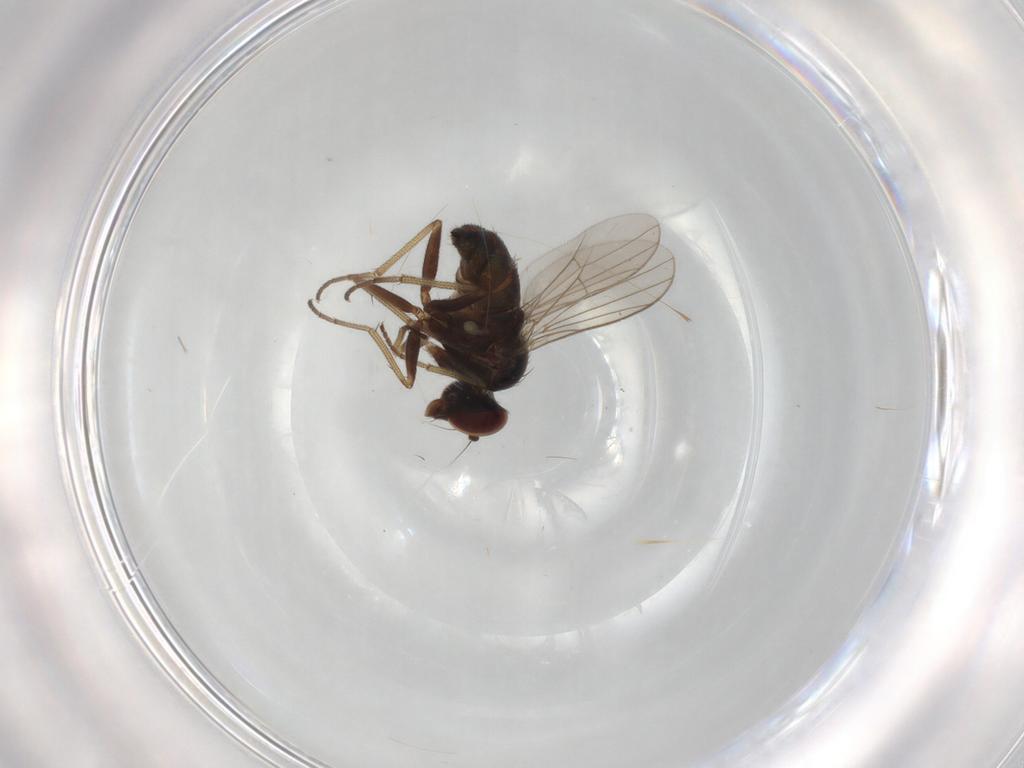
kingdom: Animalia
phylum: Arthropoda
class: Insecta
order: Diptera
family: Dolichopodidae
